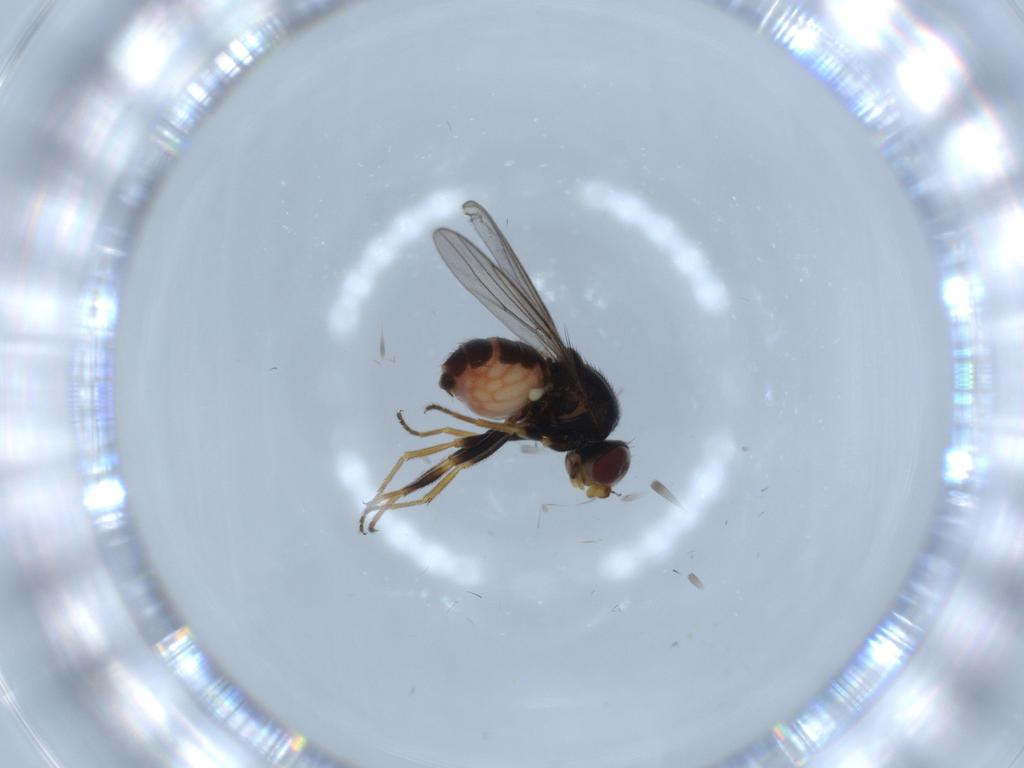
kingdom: Animalia
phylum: Arthropoda
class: Insecta
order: Diptera
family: Chloropidae
